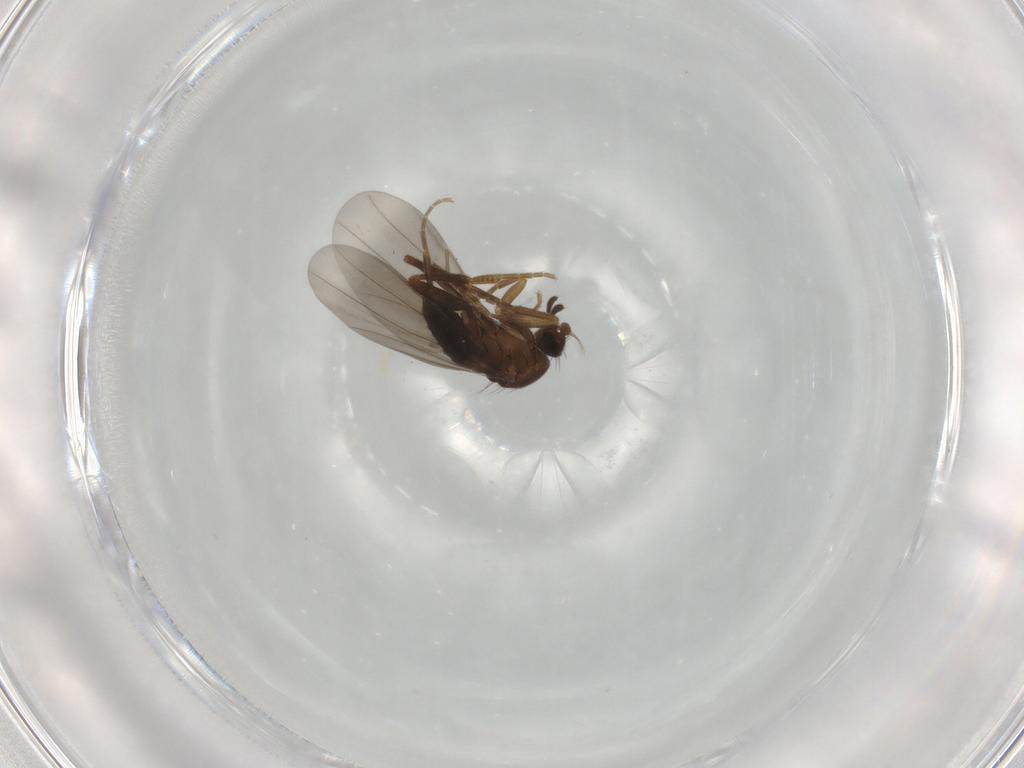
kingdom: Animalia
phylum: Arthropoda
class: Insecta
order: Diptera
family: Phoridae
